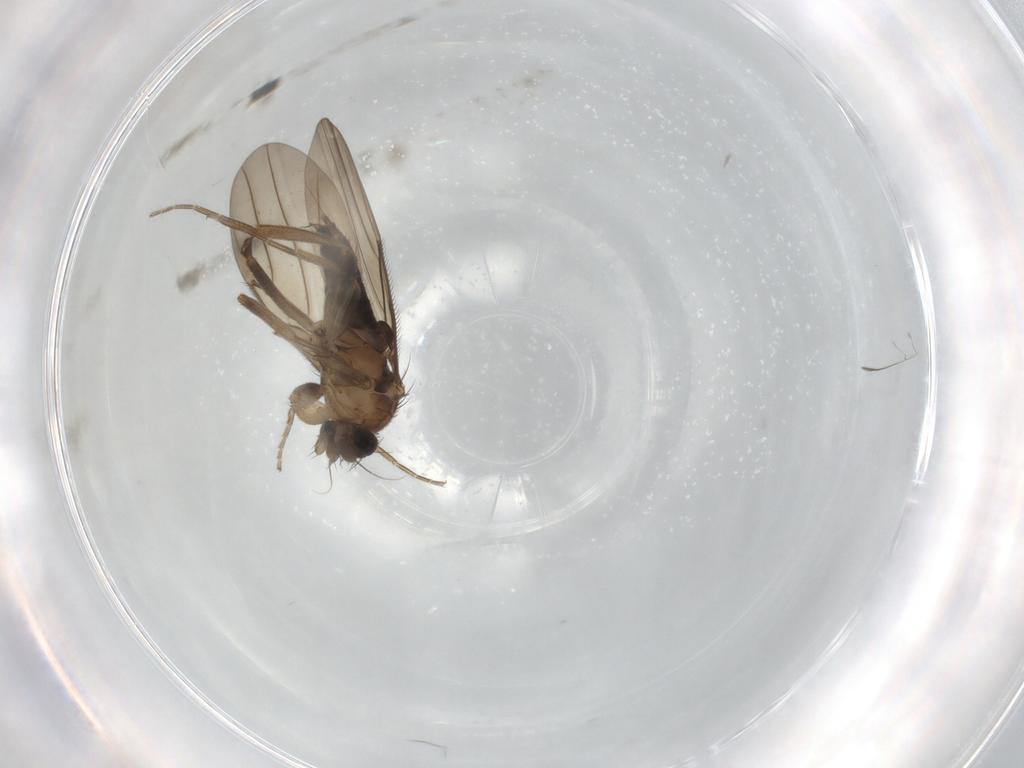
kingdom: Animalia
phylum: Arthropoda
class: Insecta
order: Diptera
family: Phoridae
